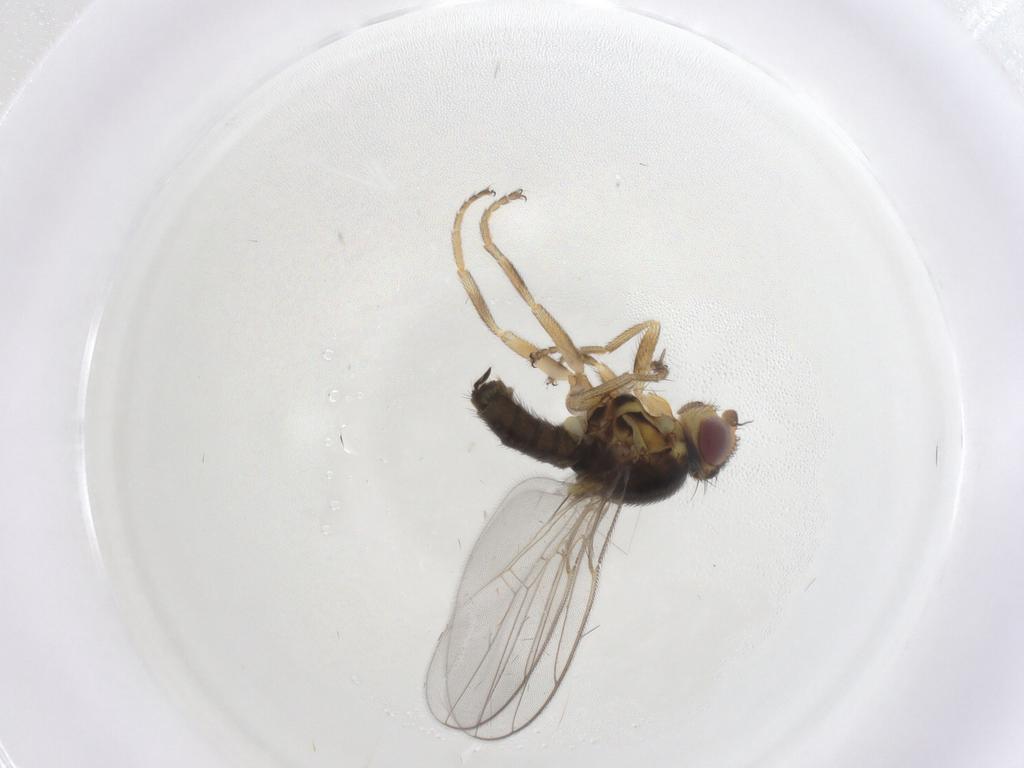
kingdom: Animalia
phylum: Arthropoda
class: Insecta
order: Diptera
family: Chloropidae
